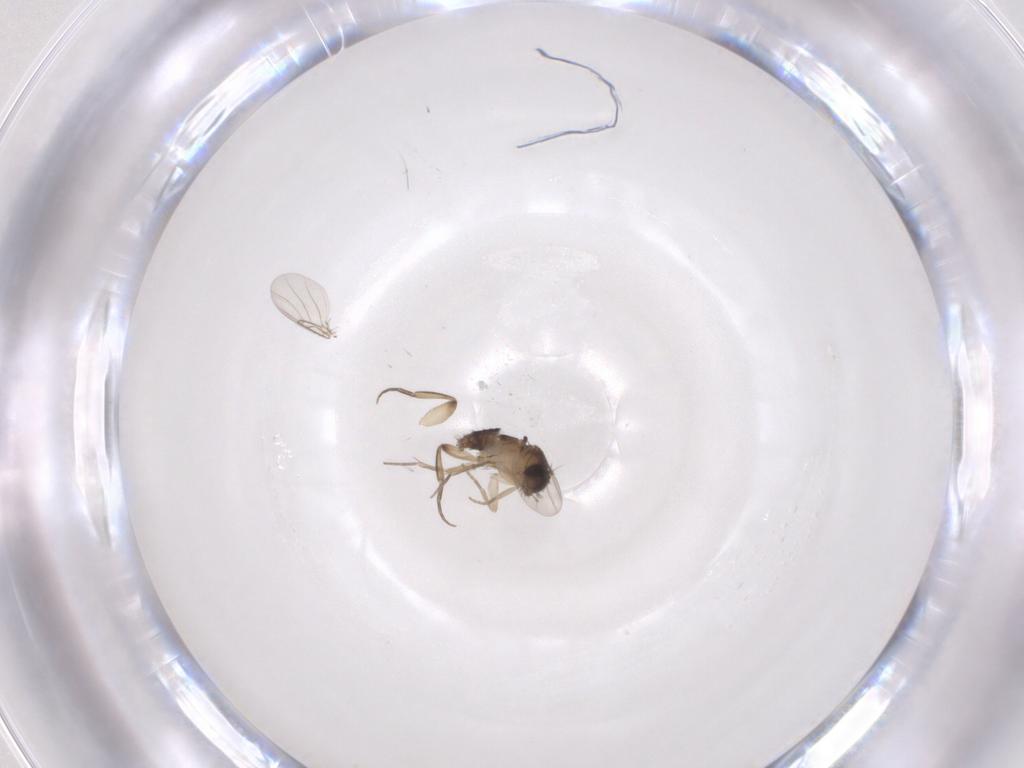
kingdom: Animalia
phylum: Arthropoda
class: Insecta
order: Diptera
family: Phoridae
